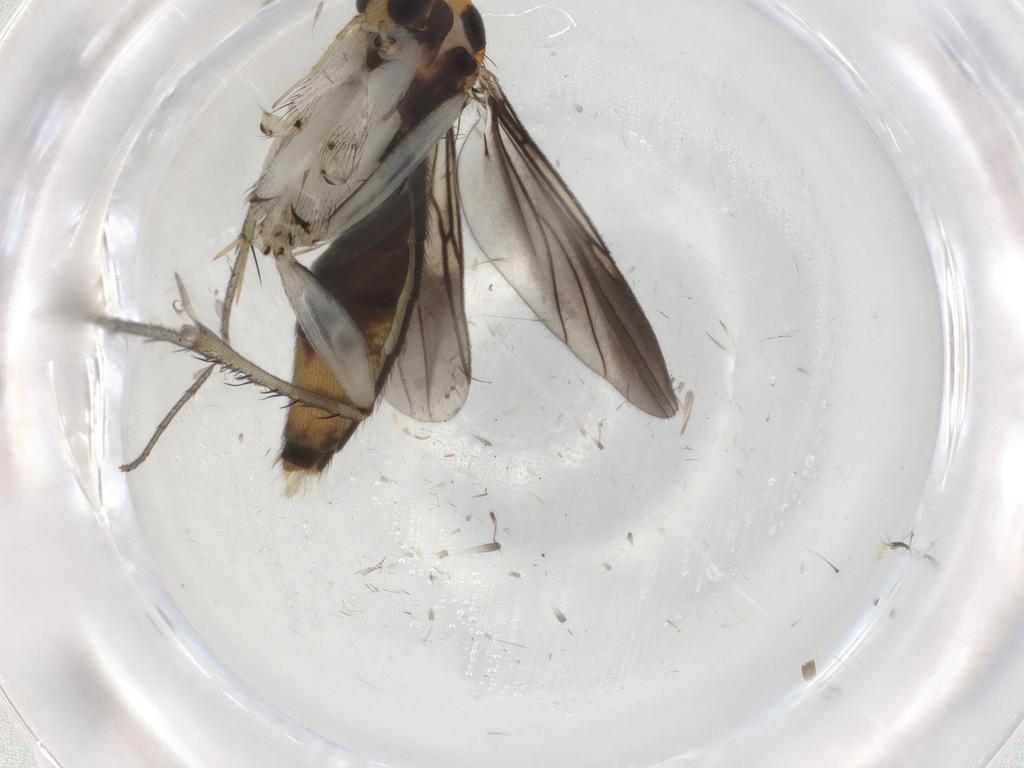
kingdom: Animalia
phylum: Arthropoda
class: Insecta
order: Diptera
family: Mycetophilidae
